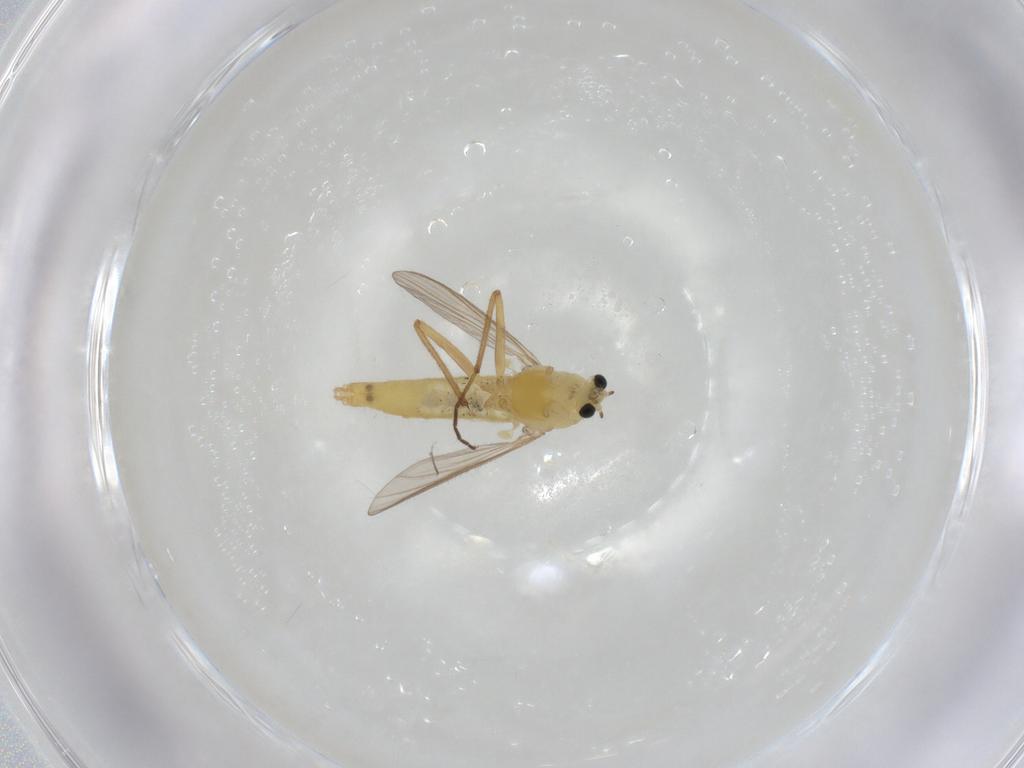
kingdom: Animalia
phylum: Arthropoda
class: Insecta
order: Diptera
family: Chironomidae
